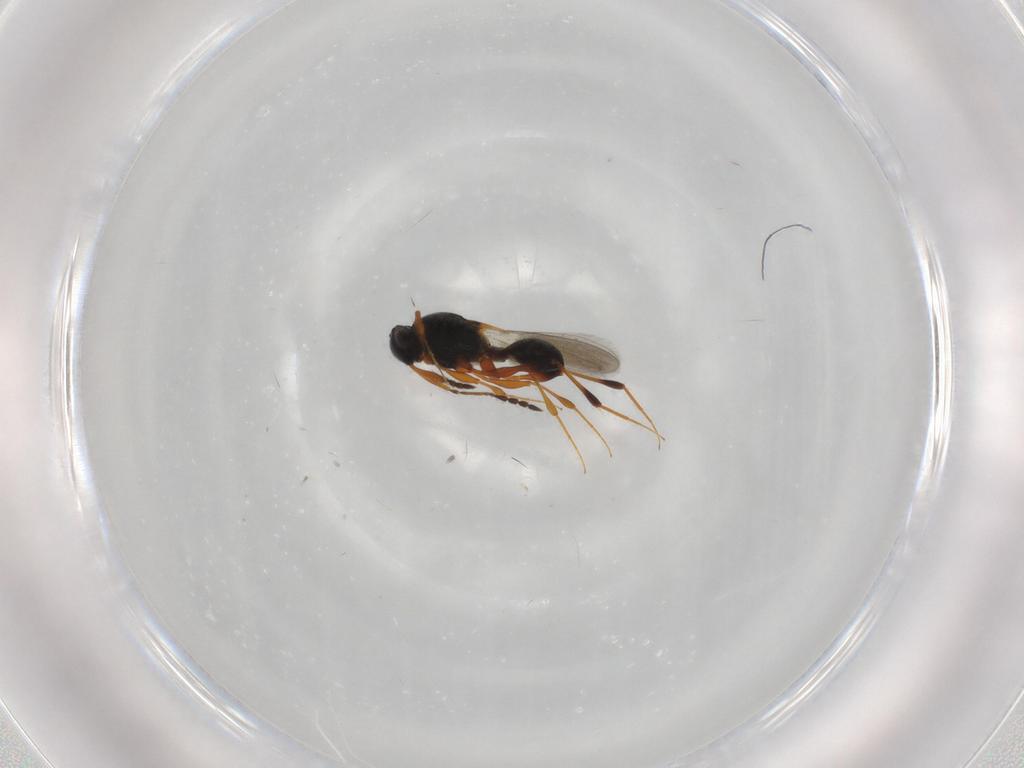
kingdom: Animalia
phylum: Arthropoda
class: Insecta
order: Hymenoptera
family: Platygastridae
